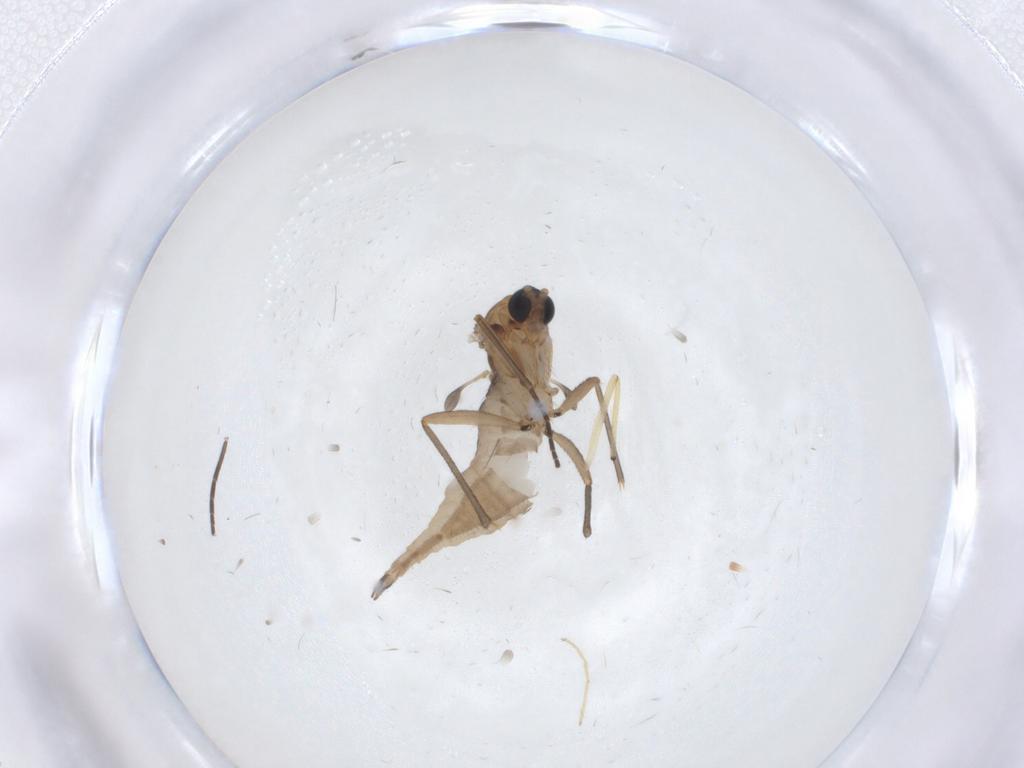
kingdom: Animalia
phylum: Arthropoda
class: Insecta
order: Diptera
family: Sciaridae
